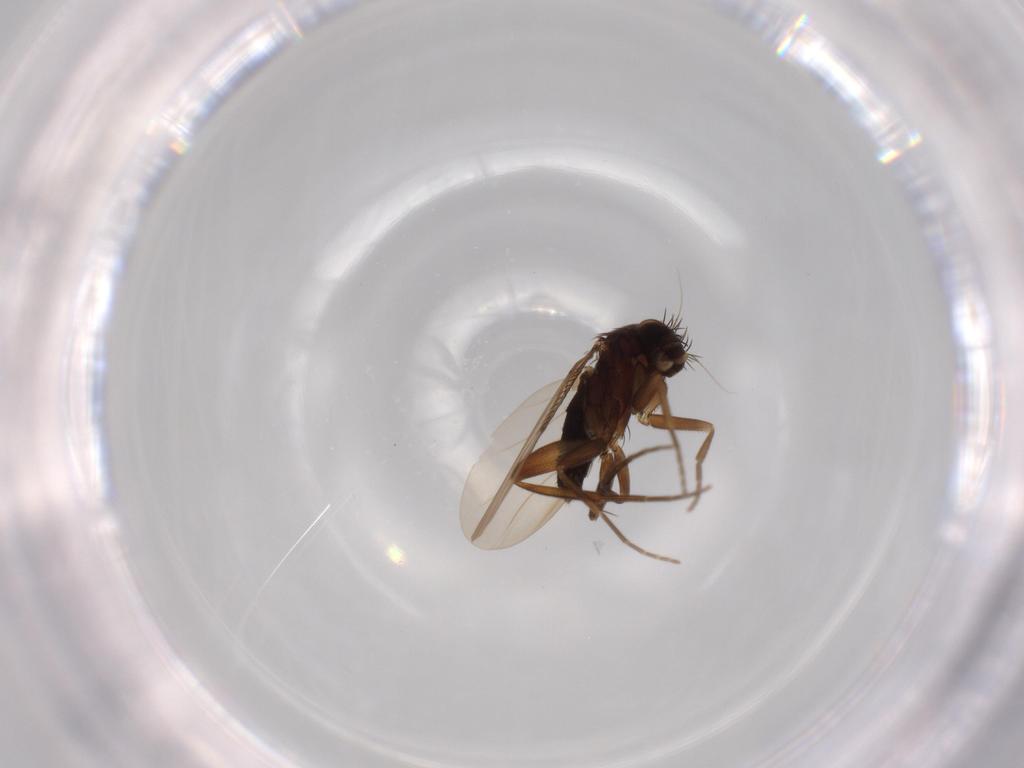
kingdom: Animalia
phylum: Arthropoda
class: Insecta
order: Diptera
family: Phoridae
